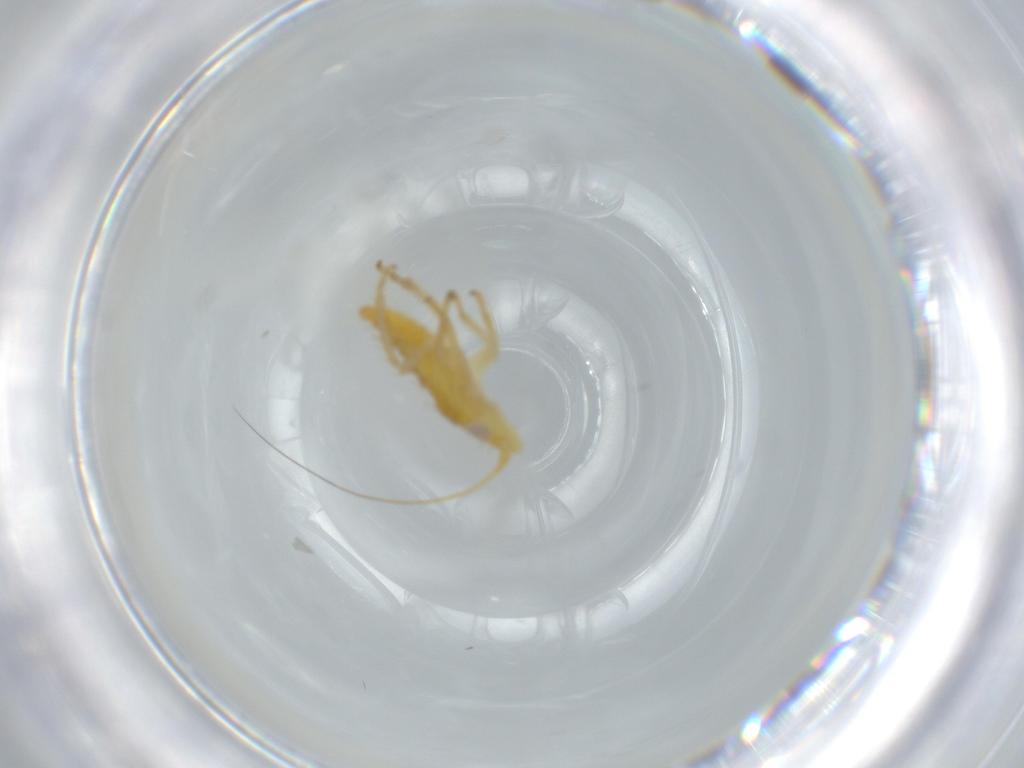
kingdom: Animalia
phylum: Arthropoda
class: Insecta
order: Hemiptera
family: Cicadellidae
